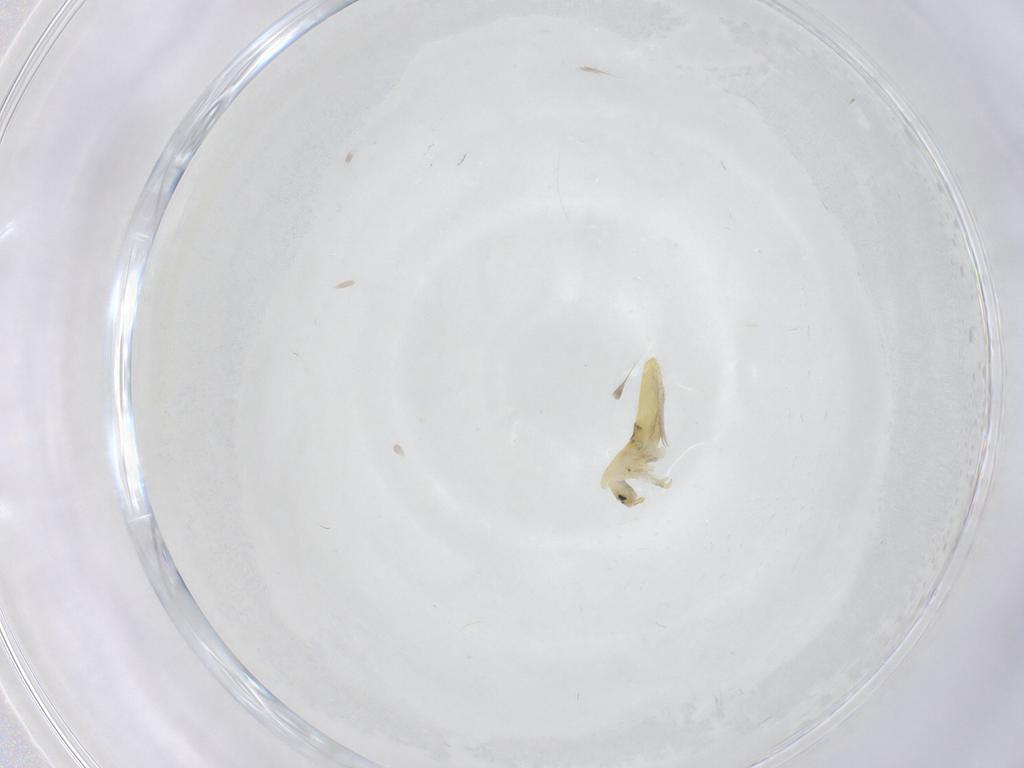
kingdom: Animalia
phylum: Arthropoda
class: Collembola
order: Entomobryomorpha
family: Entomobryidae
